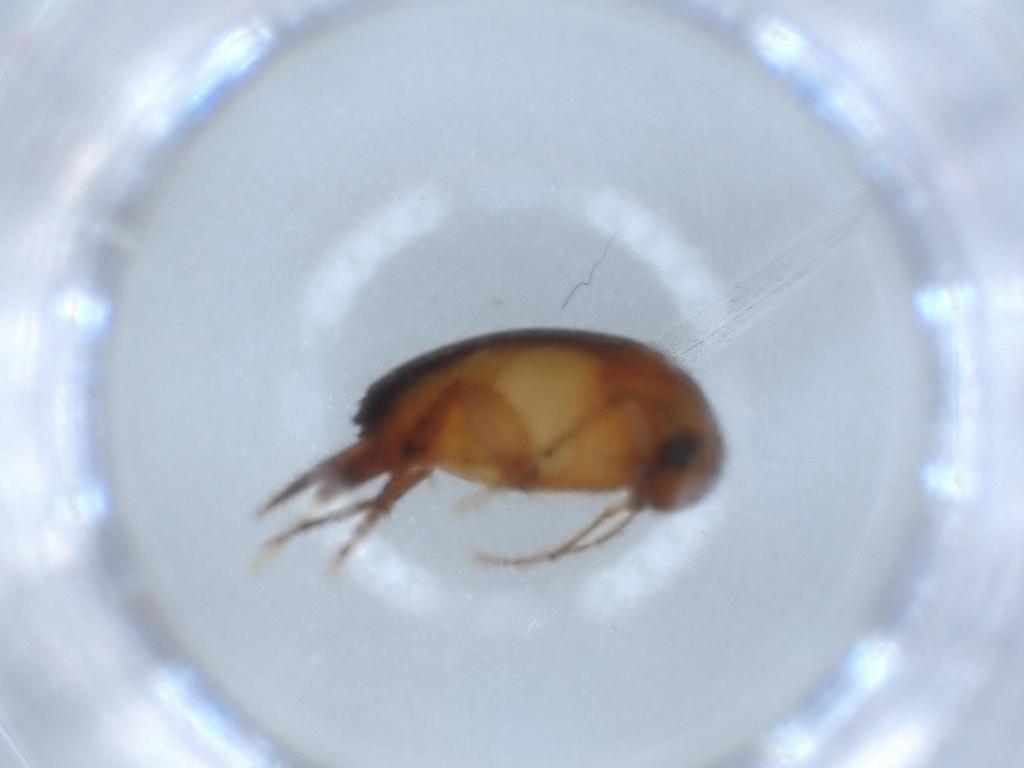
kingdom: Animalia
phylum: Arthropoda
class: Insecta
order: Coleoptera
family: Mordellidae
